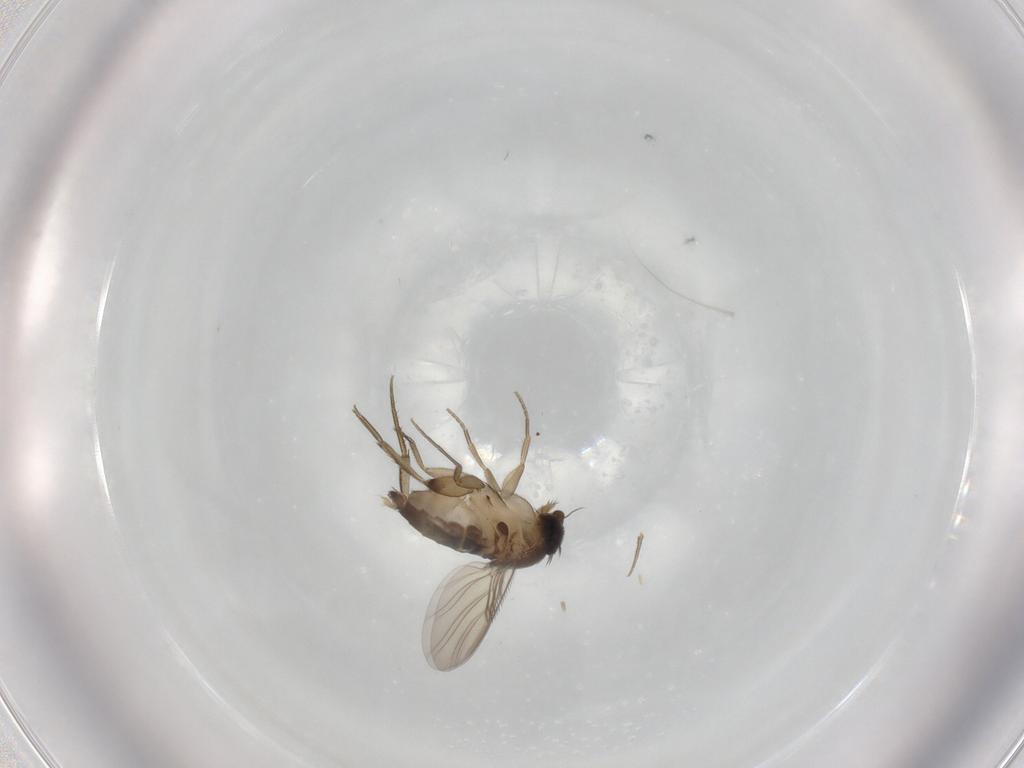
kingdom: Animalia
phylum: Arthropoda
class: Insecta
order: Diptera
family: Phoridae
